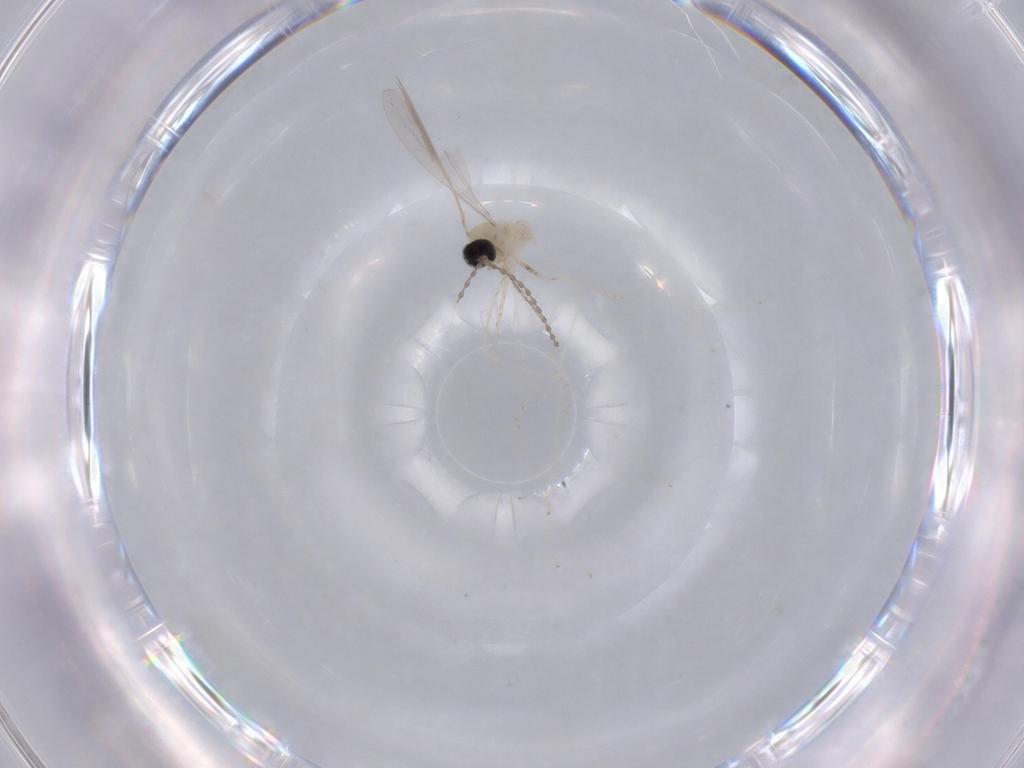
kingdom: Animalia
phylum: Arthropoda
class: Insecta
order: Diptera
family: Cecidomyiidae
